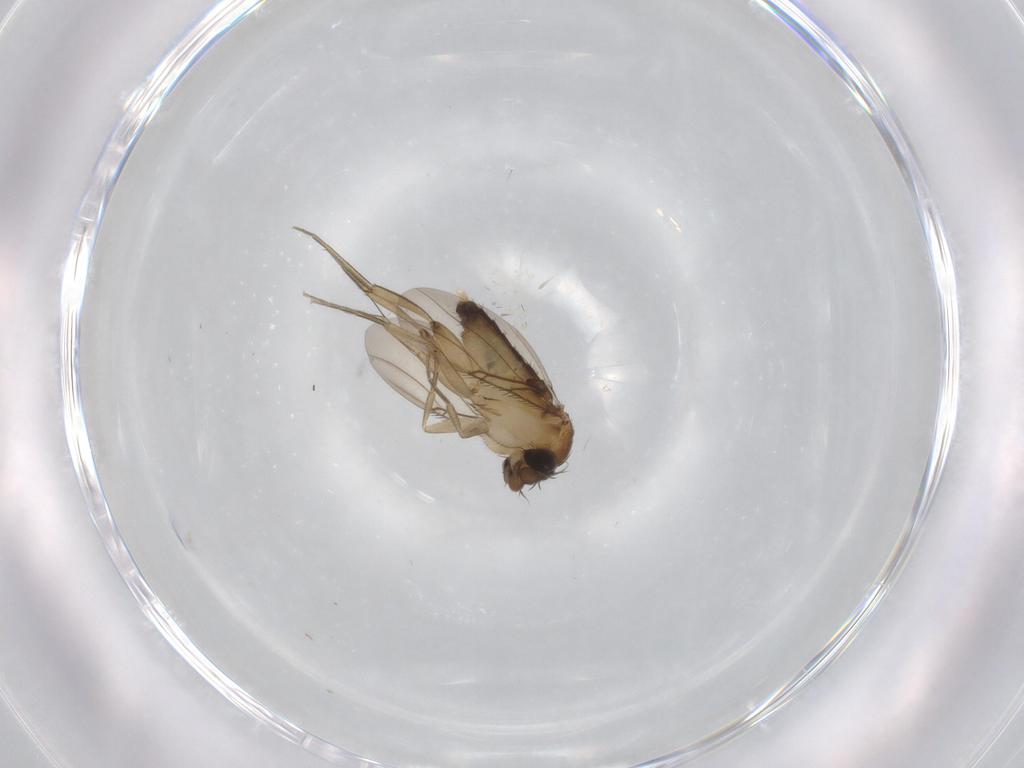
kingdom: Animalia
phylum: Arthropoda
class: Insecta
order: Diptera
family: Phoridae
